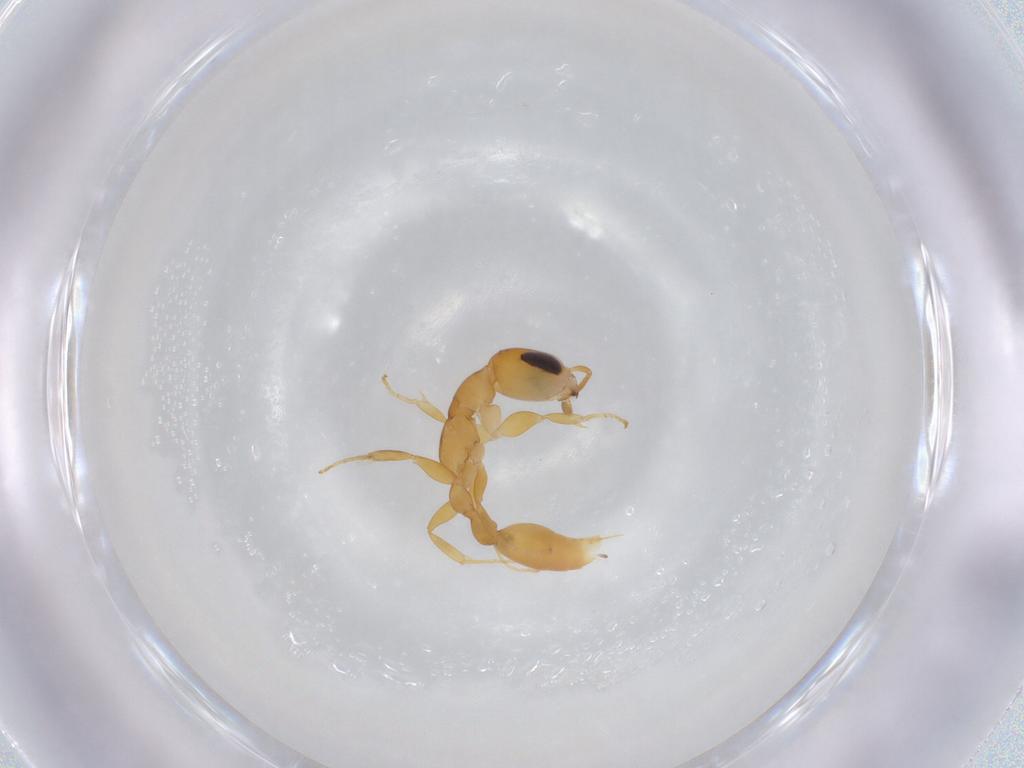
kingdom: Animalia
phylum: Arthropoda
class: Insecta
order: Hymenoptera
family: Formicidae
